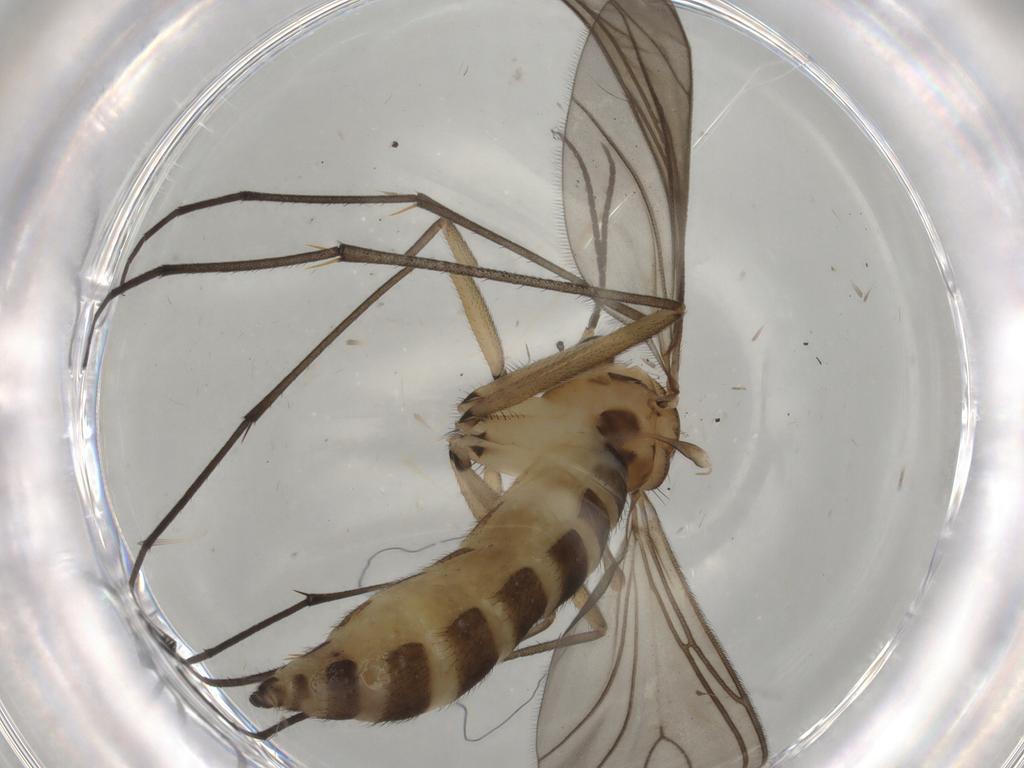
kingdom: Animalia
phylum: Arthropoda
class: Insecta
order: Diptera
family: Sciaridae
